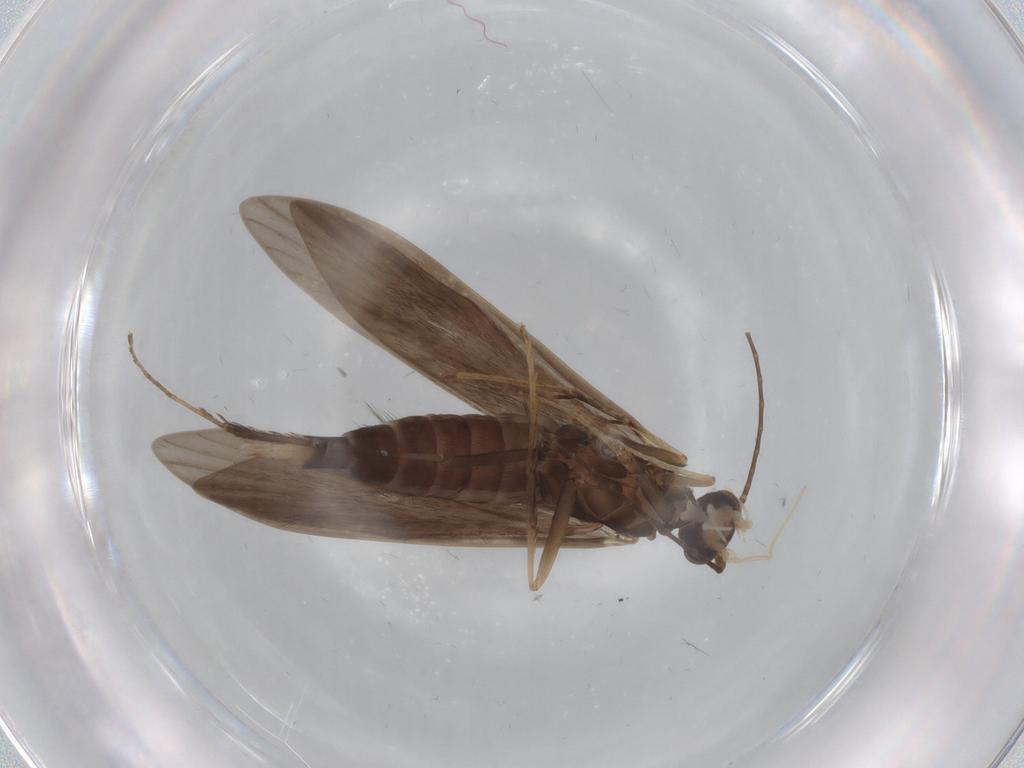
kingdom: Animalia
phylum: Arthropoda
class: Insecta
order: Trichoptera
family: Xiphocentronidae
